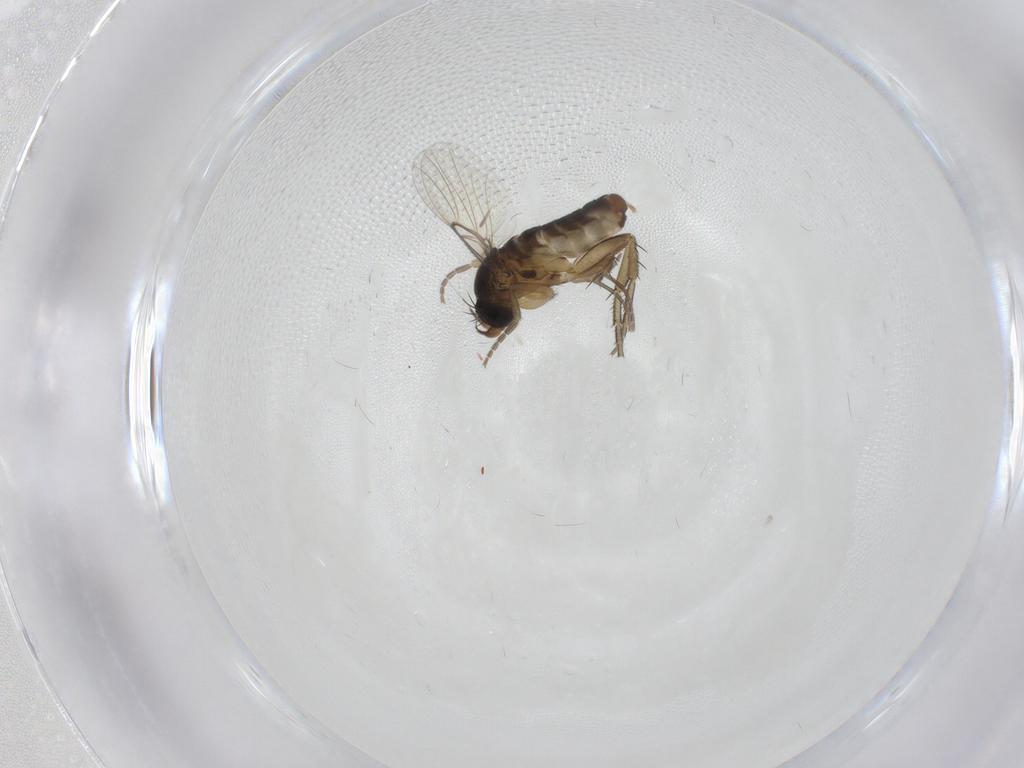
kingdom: Animalia
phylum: Arthropoda
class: Insecta
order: Diptera
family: Phoridae
